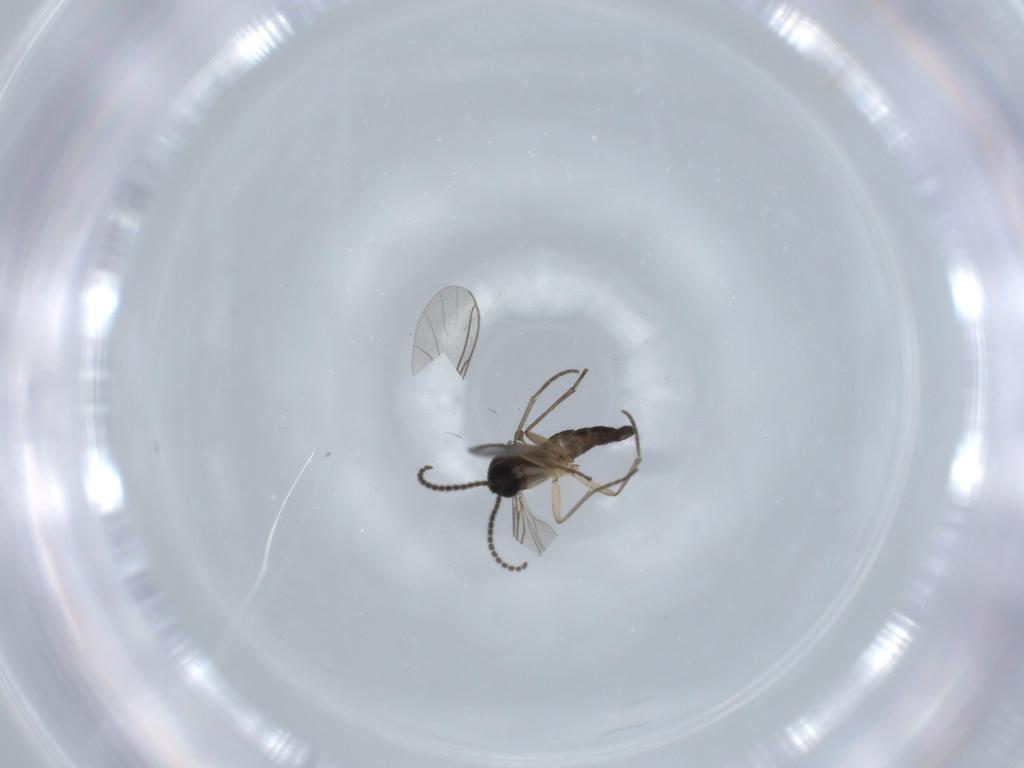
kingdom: Animalia
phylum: Arthropoda
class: Insecta
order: Diptera
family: Sciaridae
